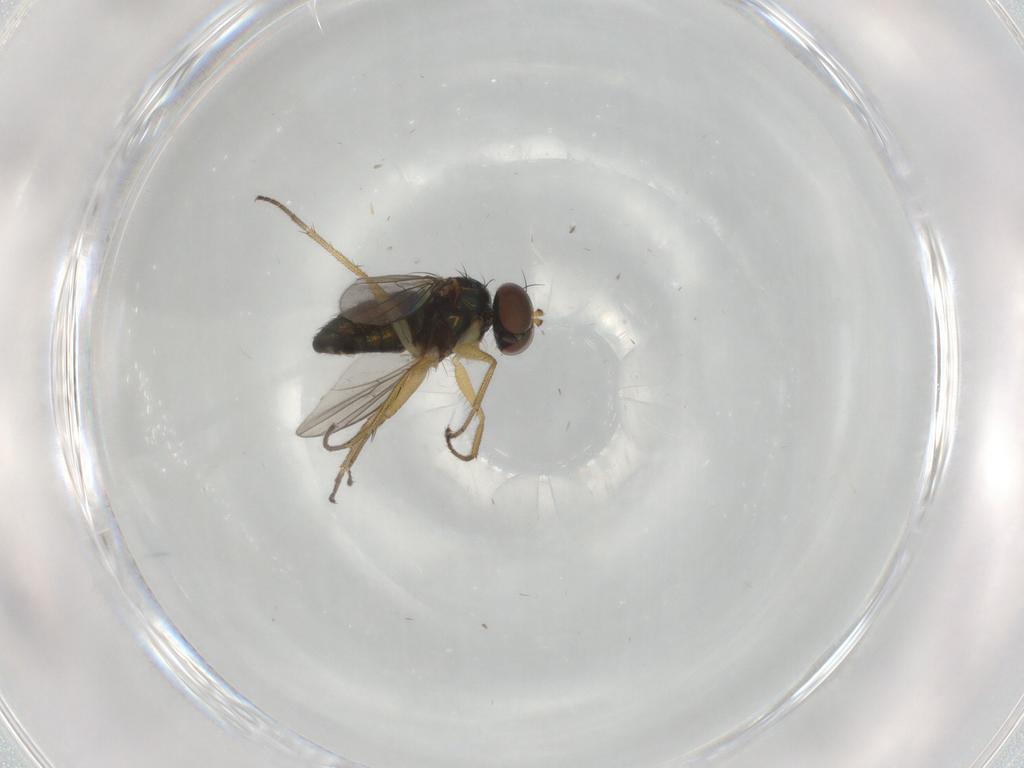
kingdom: Animalia
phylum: Arthropoda
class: Insecta
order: Diptera
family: Dolichopodidae
